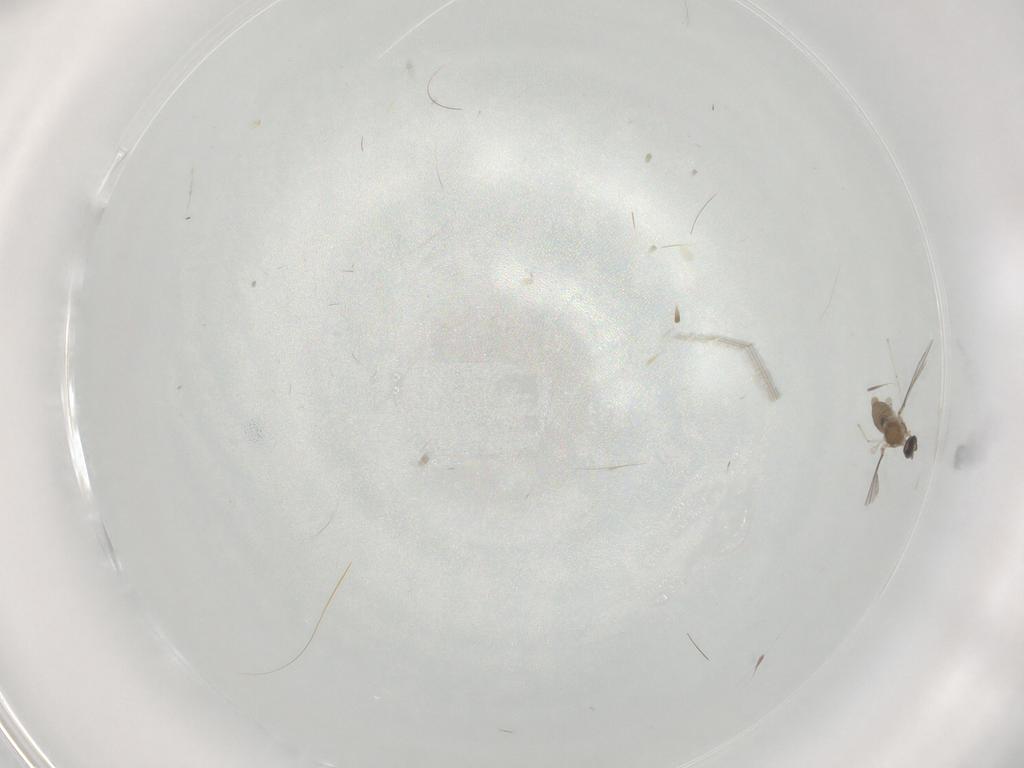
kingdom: Animalia
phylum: Arthropoda
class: Insecta
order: Diptera
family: Chironomidae
